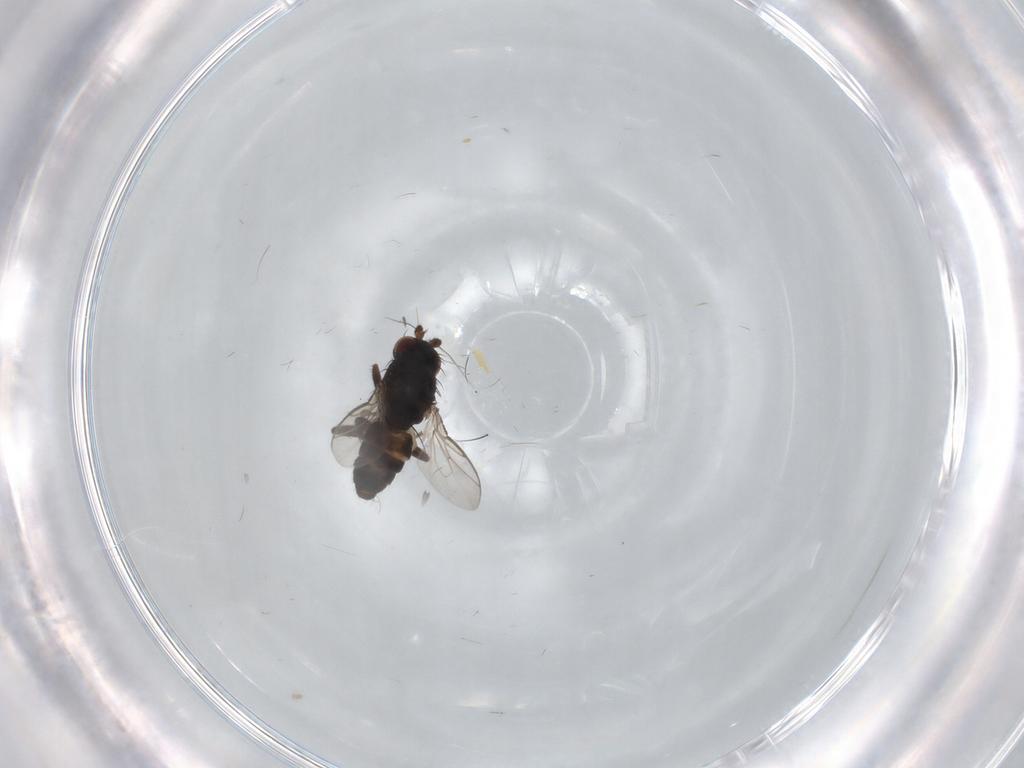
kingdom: Animalia
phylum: Arthropoda
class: Insecta
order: Diptera
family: Sphaeroceridae
